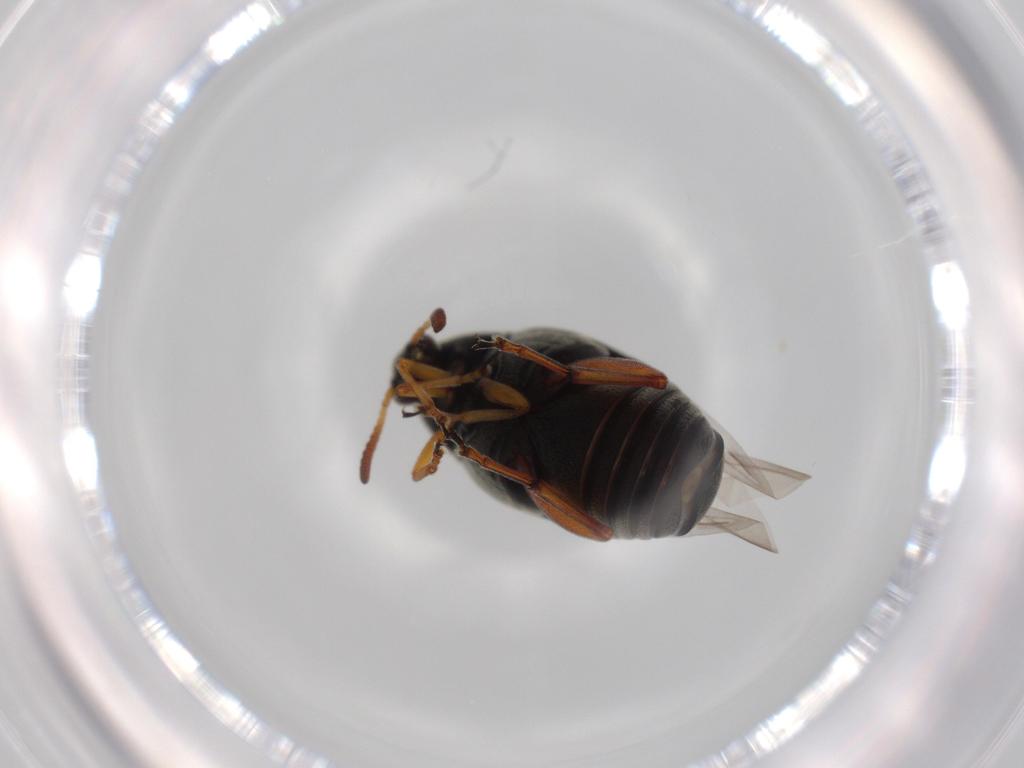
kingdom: Animalia
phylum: Arthropoda
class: Insecta
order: Coleoptera
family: Chrysomelidae
